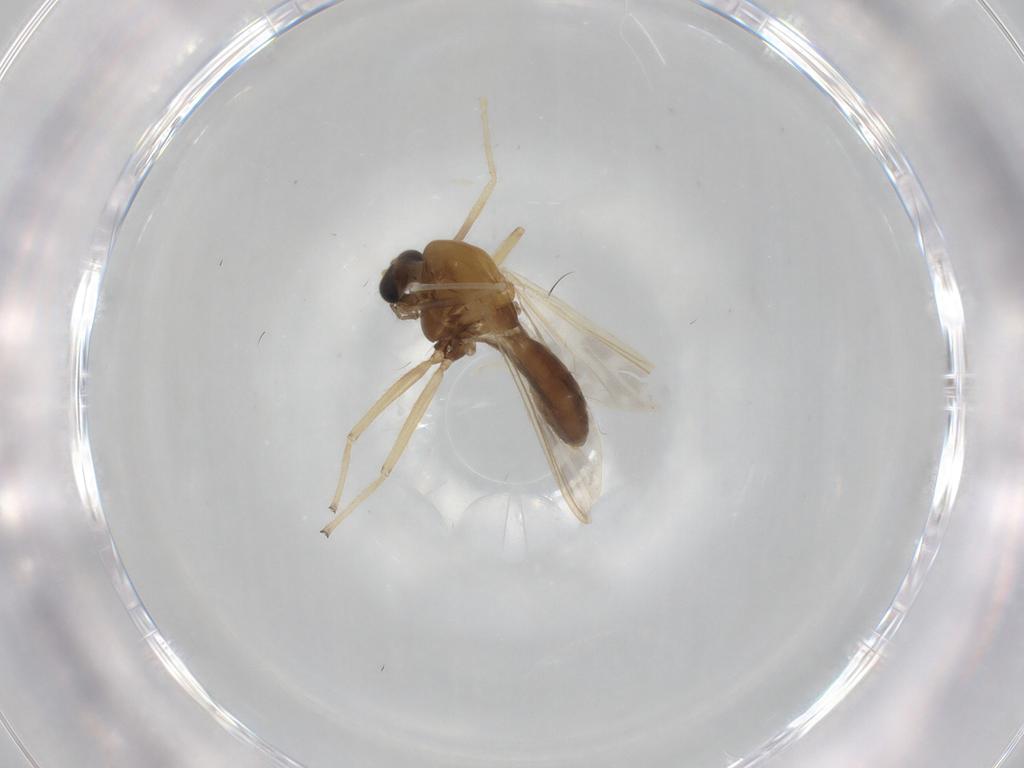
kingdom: Animalia
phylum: Arthropoda
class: Insecta
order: Diptera
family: Chironomidae
